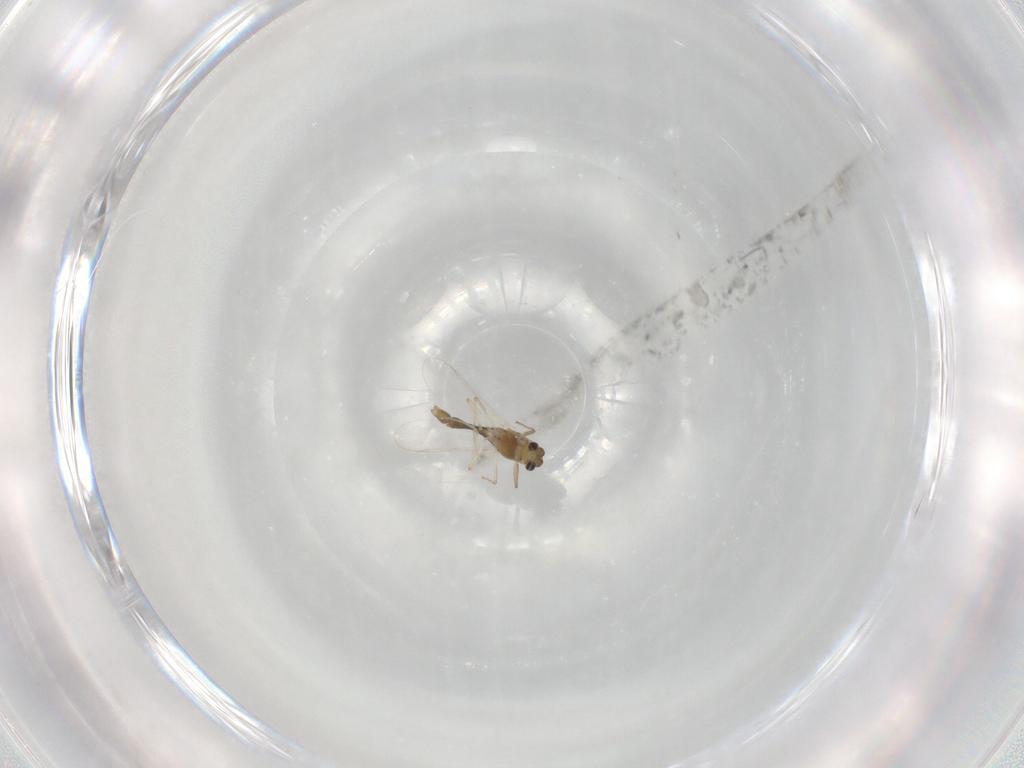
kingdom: Animalia
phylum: Arthropoda
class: Insecta
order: Diptera
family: Chironomidae
